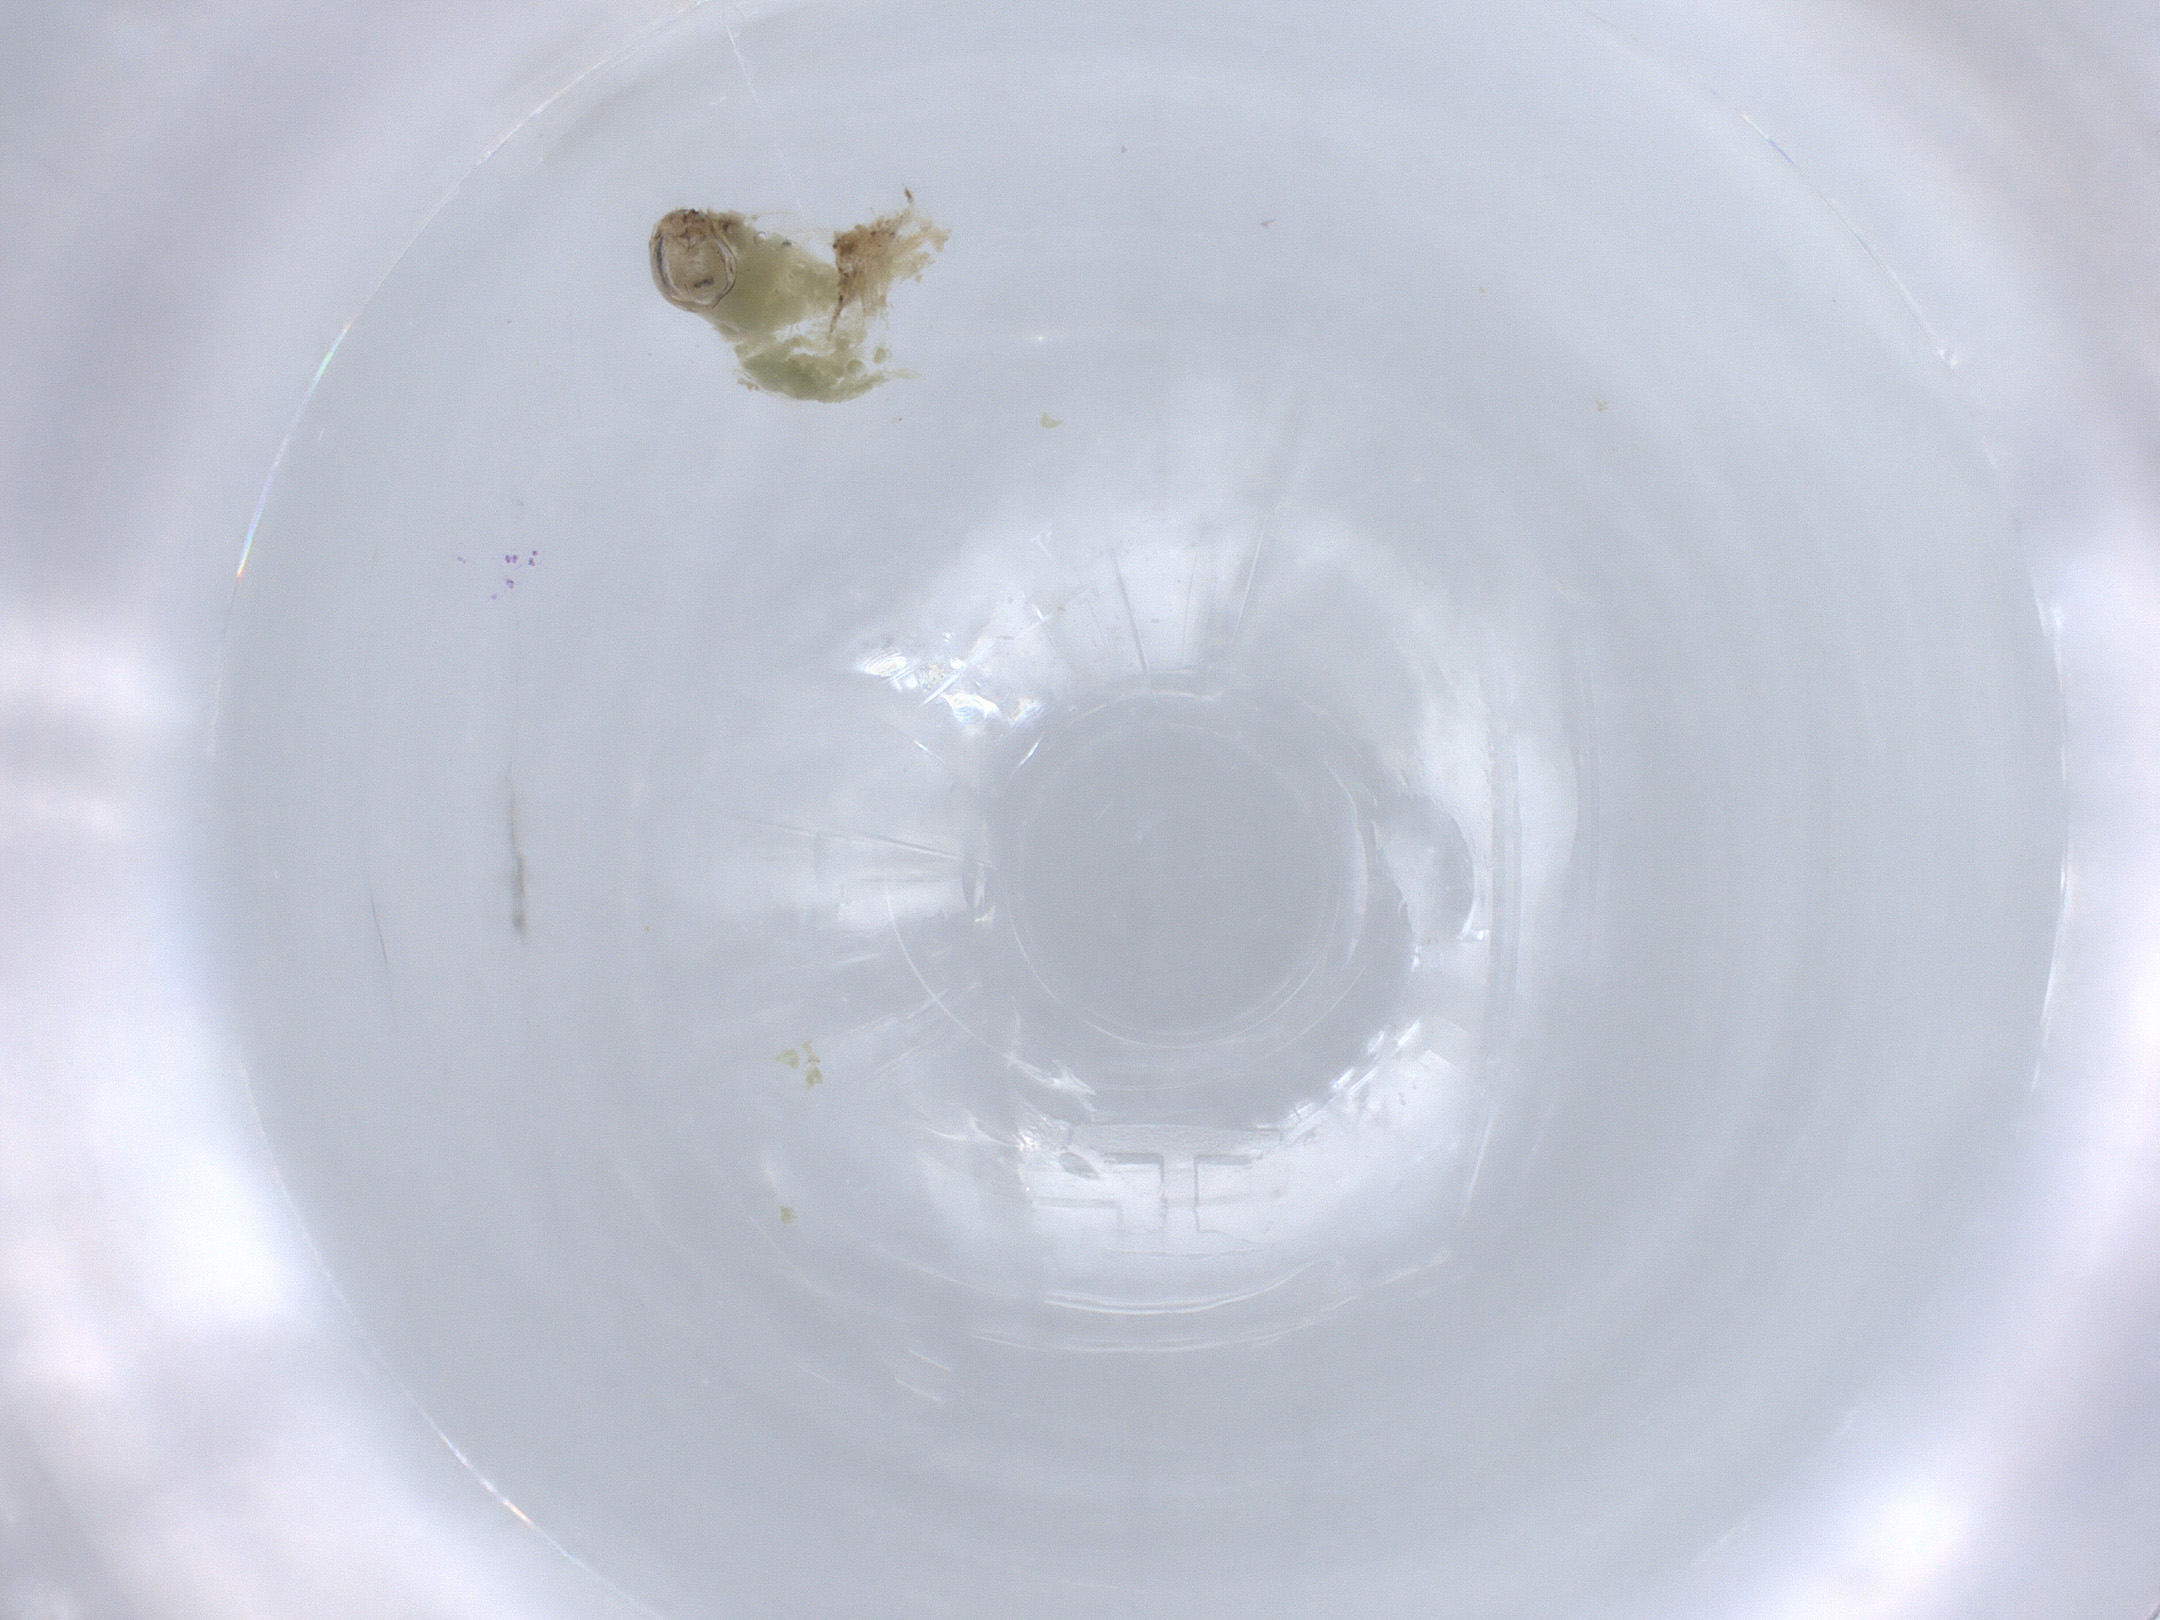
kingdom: Animalia
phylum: Arthropoda
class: Insecta
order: Diptera
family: Chironomidae
